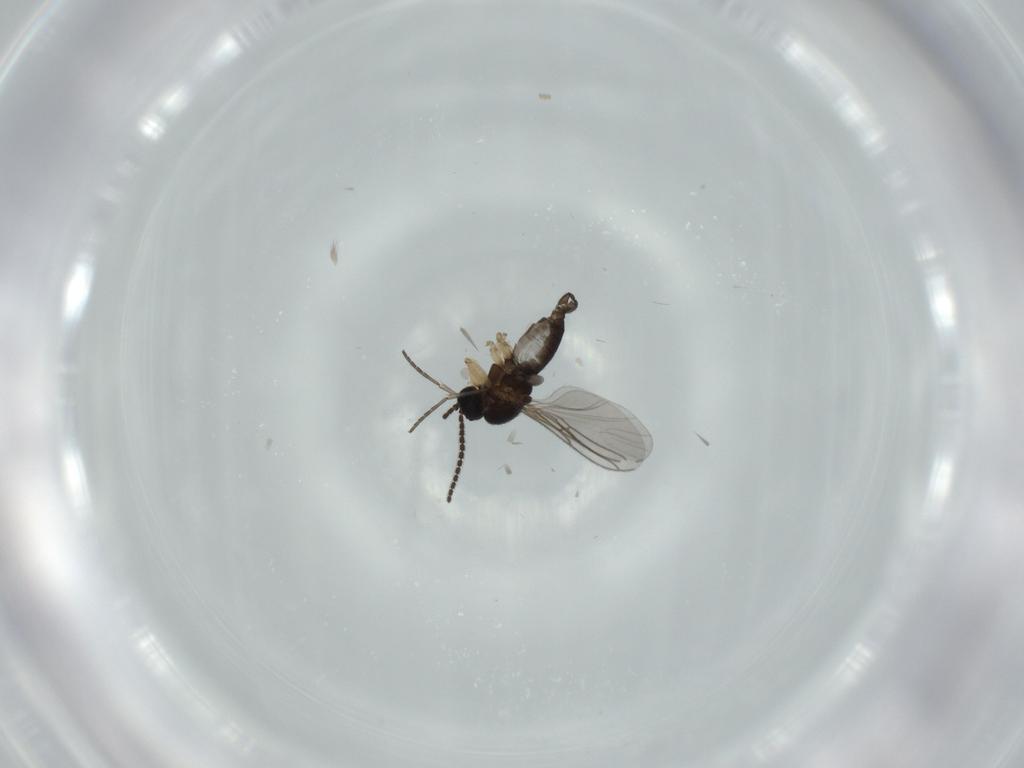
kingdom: Animalia
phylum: Arthropoda
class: Insecta
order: Diptera
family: Sciaridae
